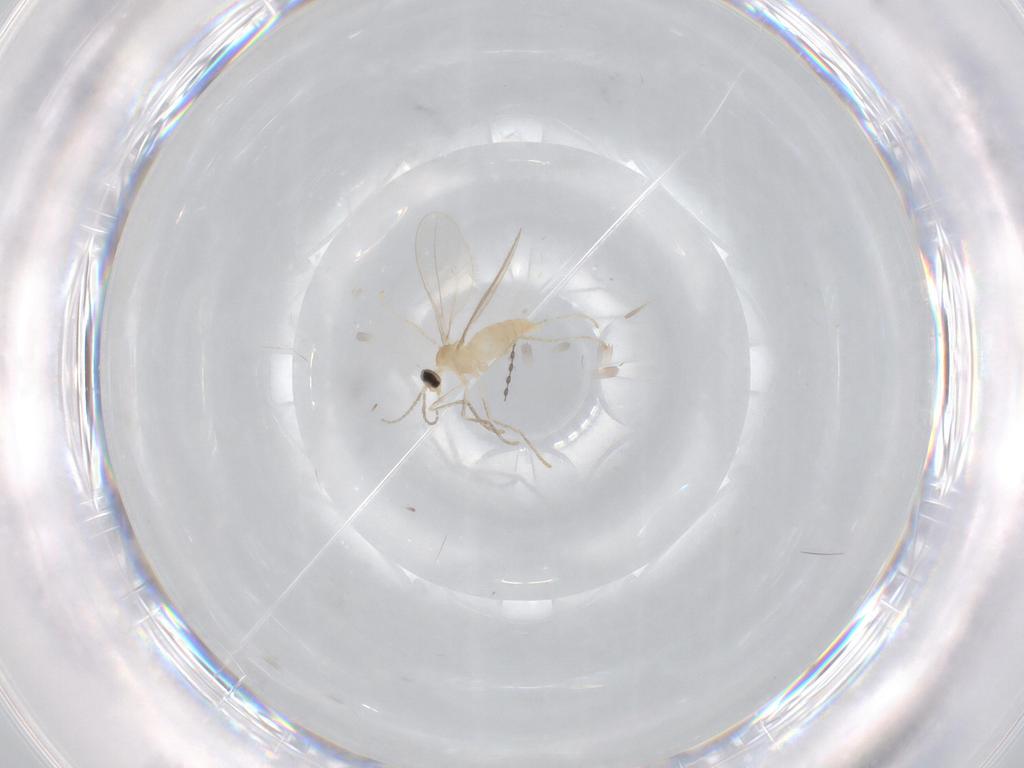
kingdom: Animalia
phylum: Arthropoda
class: Insecta
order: Diptera
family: Cecidomyiidae
